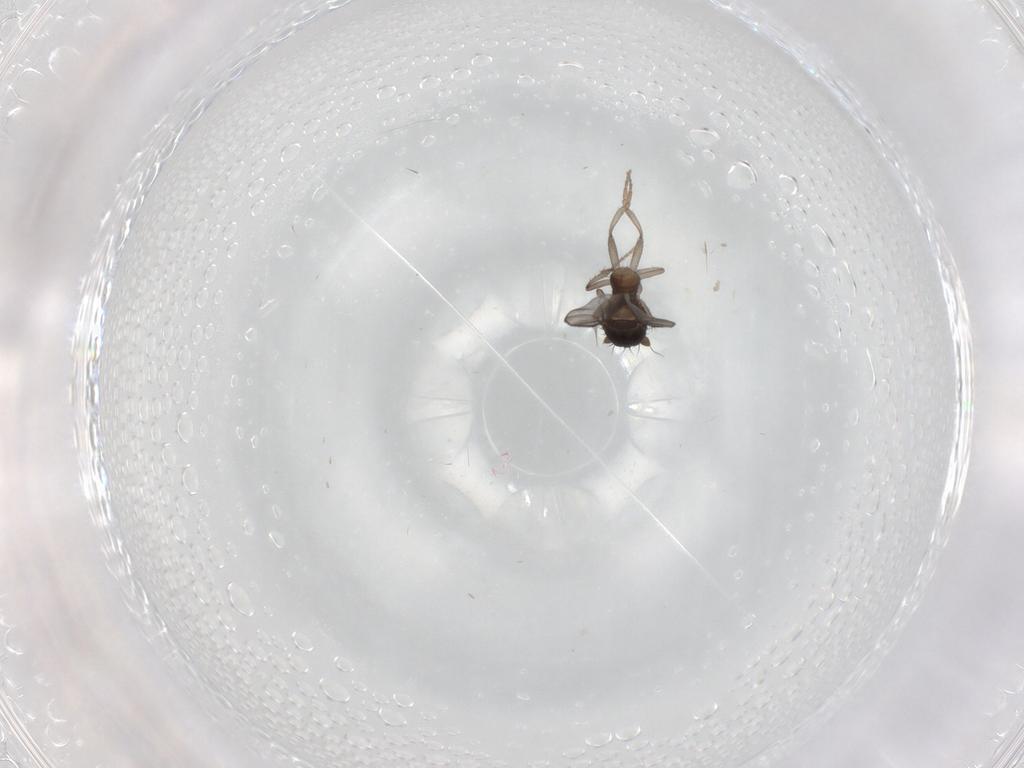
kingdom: Animalia
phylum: Arthropoda
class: Insecta
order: Diptera
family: Sphaeroceridae
